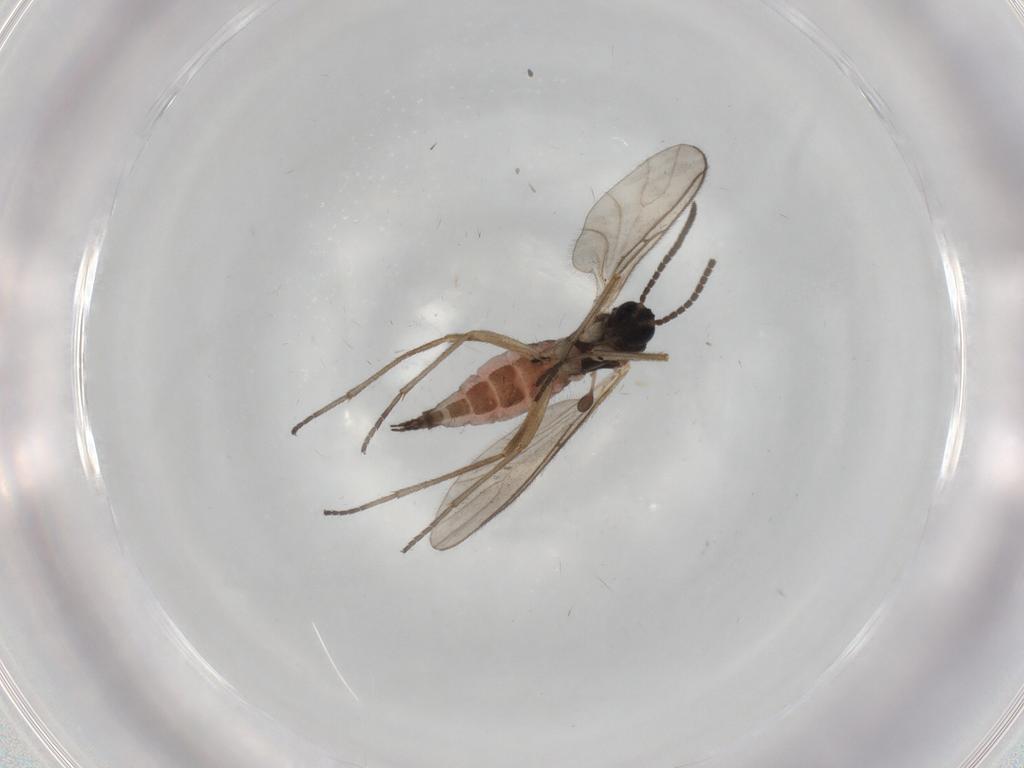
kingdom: Animalia
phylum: Arthropoda
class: Insecta
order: Diptera
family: Sciaridae
